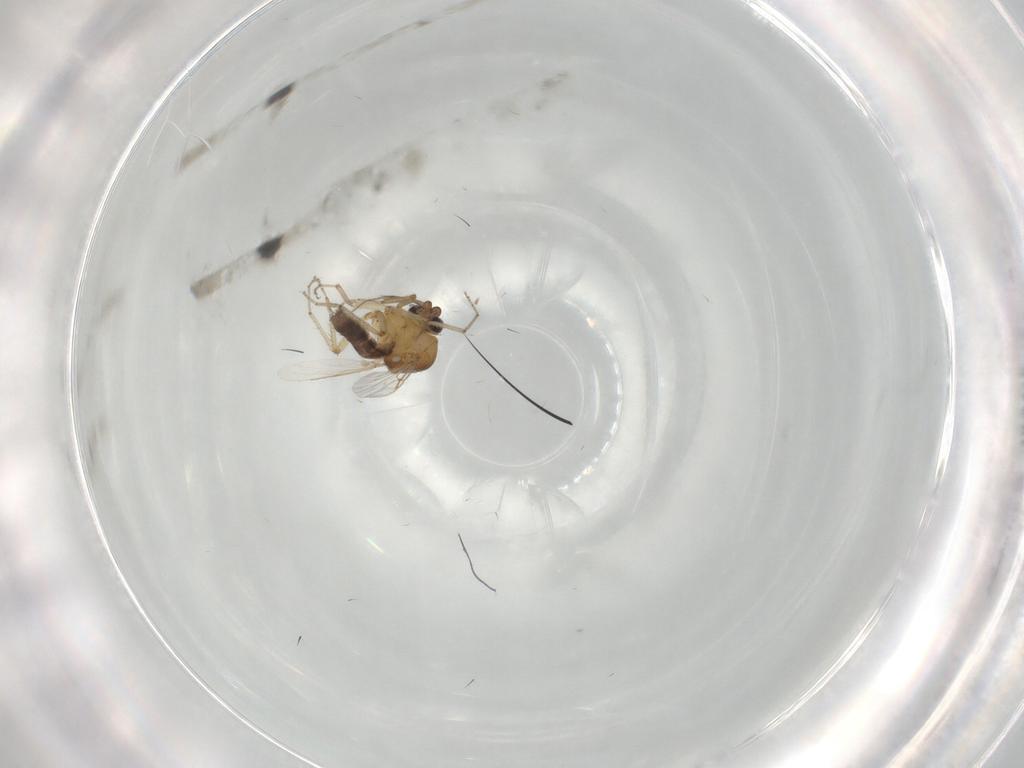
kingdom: Animalia
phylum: Arthropoda
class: Insecta
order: Diptera
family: Ceratopogonidae
